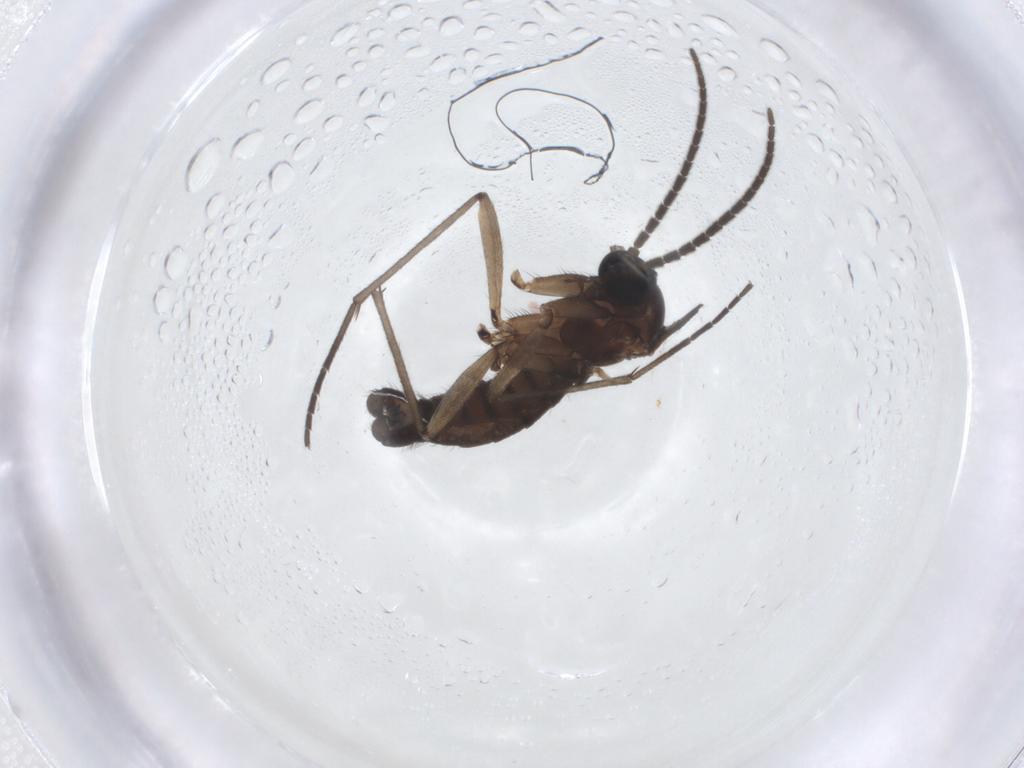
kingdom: Animalia
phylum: Arthropoda
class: Insecta
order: Diptera
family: Sciaridae
